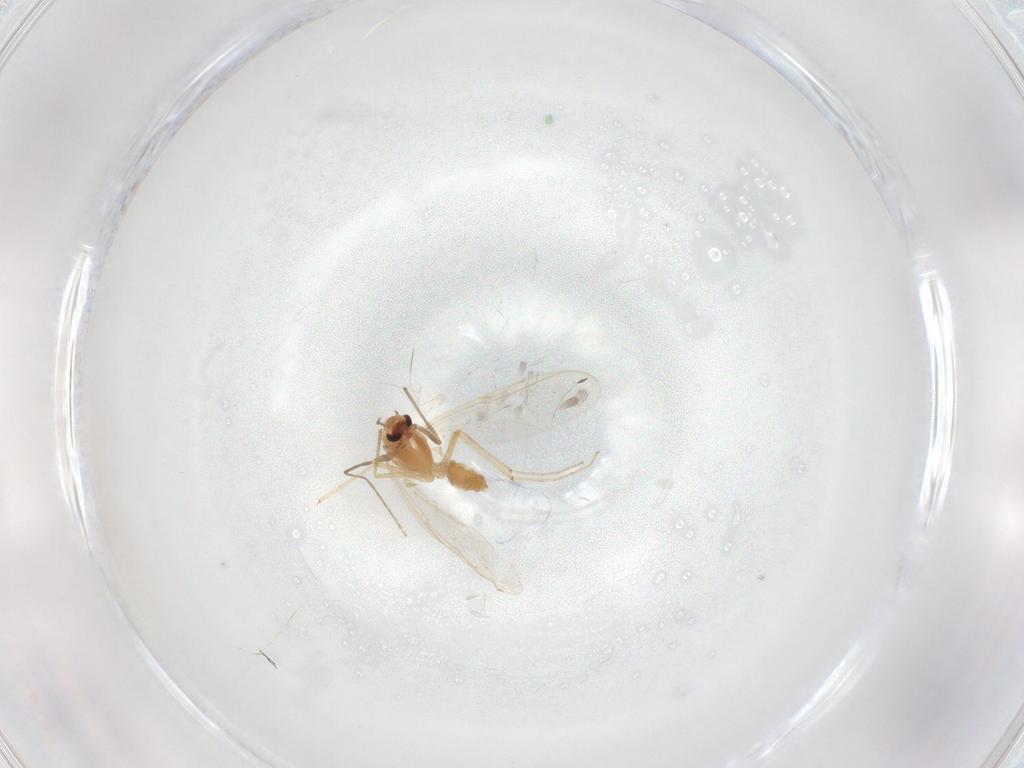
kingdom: Animalia
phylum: Arthropoda
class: Insecta
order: Diptera
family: Chironomidae
